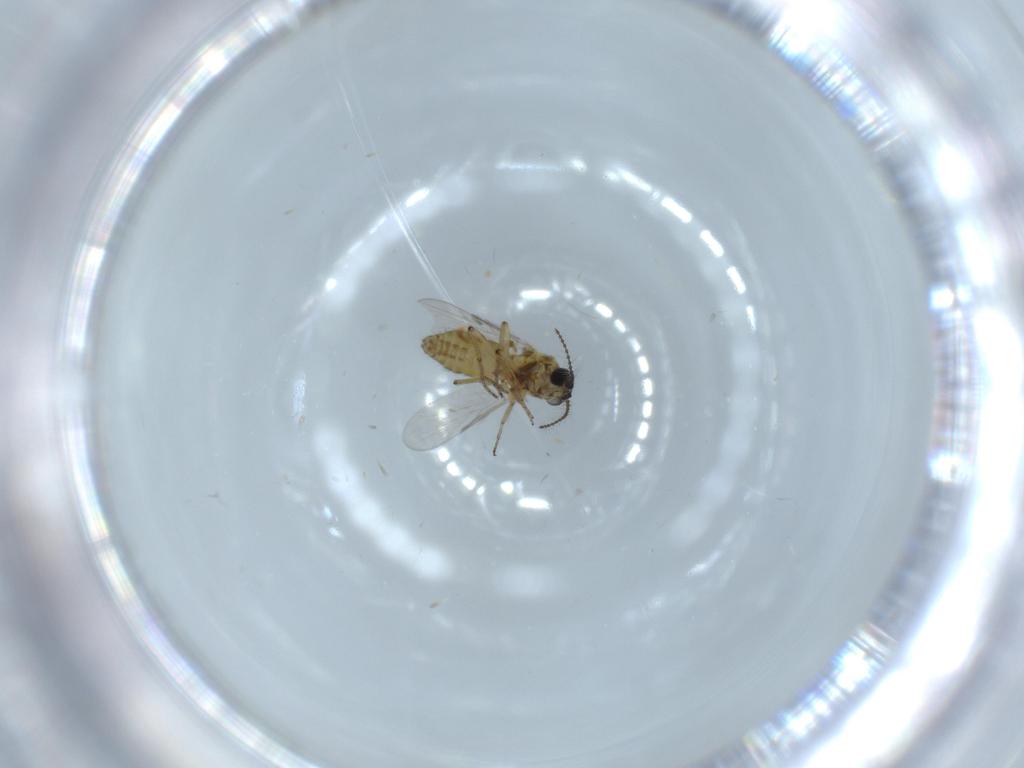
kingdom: Animalia
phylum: Arthropoda
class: Insecta
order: Diptera
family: Ceratopogonidae
